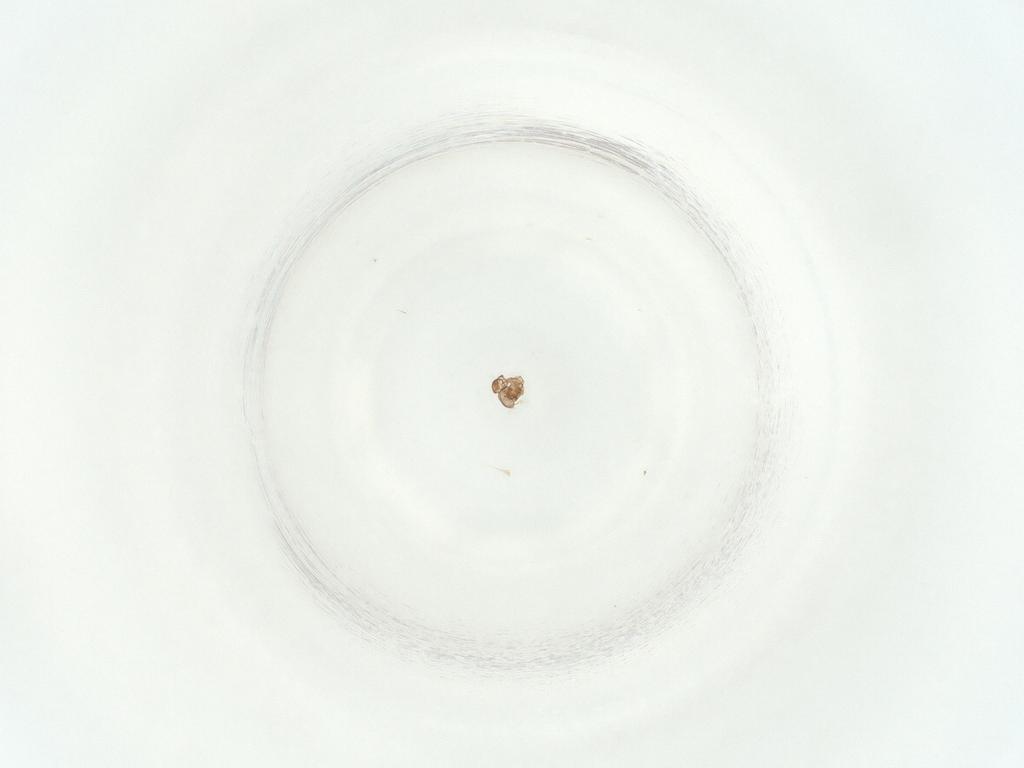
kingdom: Animalia
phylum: Arthropoda
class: Insecta
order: Diptera
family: Chironomidae
